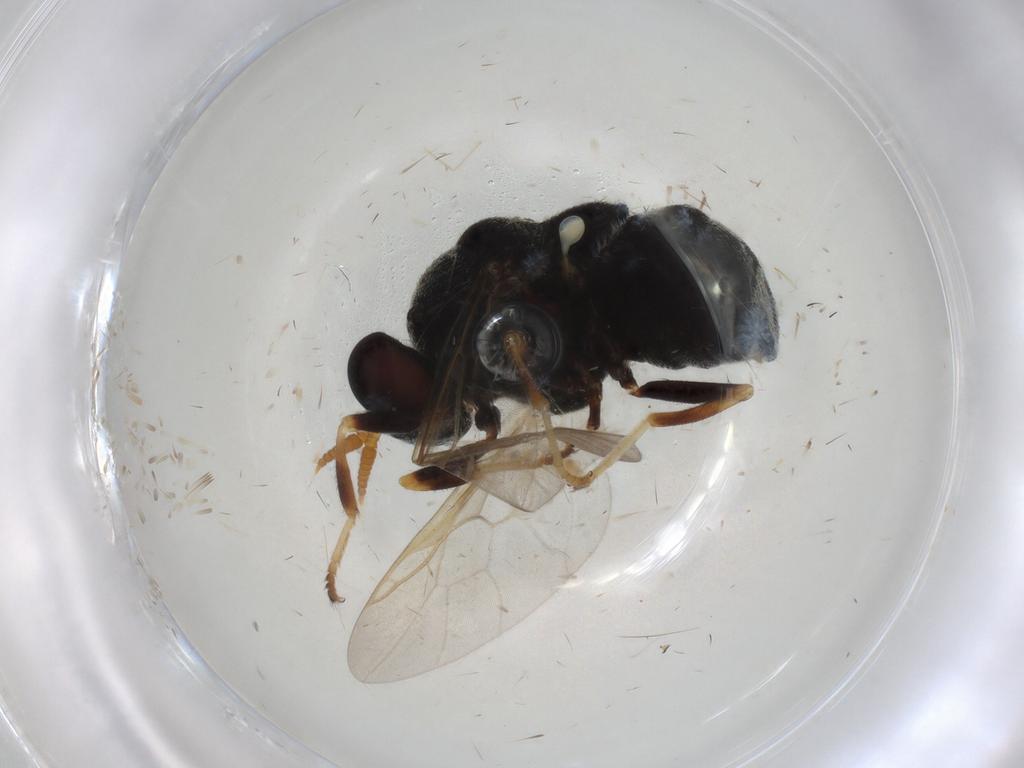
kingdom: Animalia
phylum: Arthropoda
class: Insecta
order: Diptera
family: Stratiomyidae
